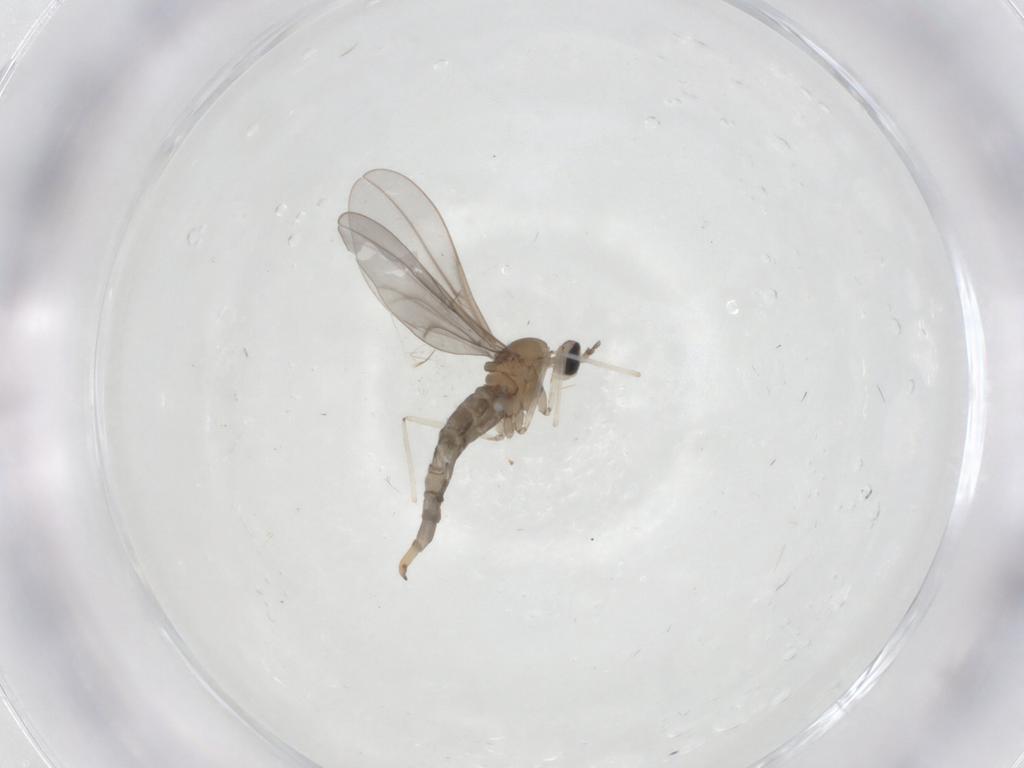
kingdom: Animalia
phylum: Arthropoda
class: Insecta
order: Diptera
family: Cecidomyiidae
